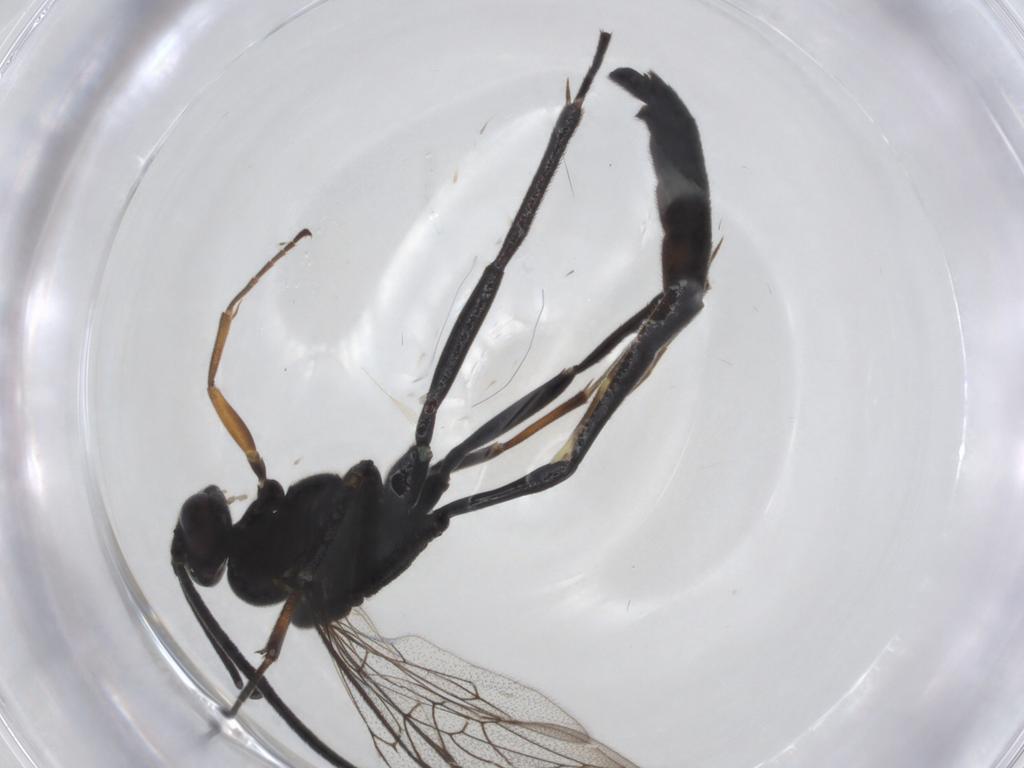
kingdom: Animalia
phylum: Arthropoda
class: Insecta
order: Hymenoptera
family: Ichneumonidae
